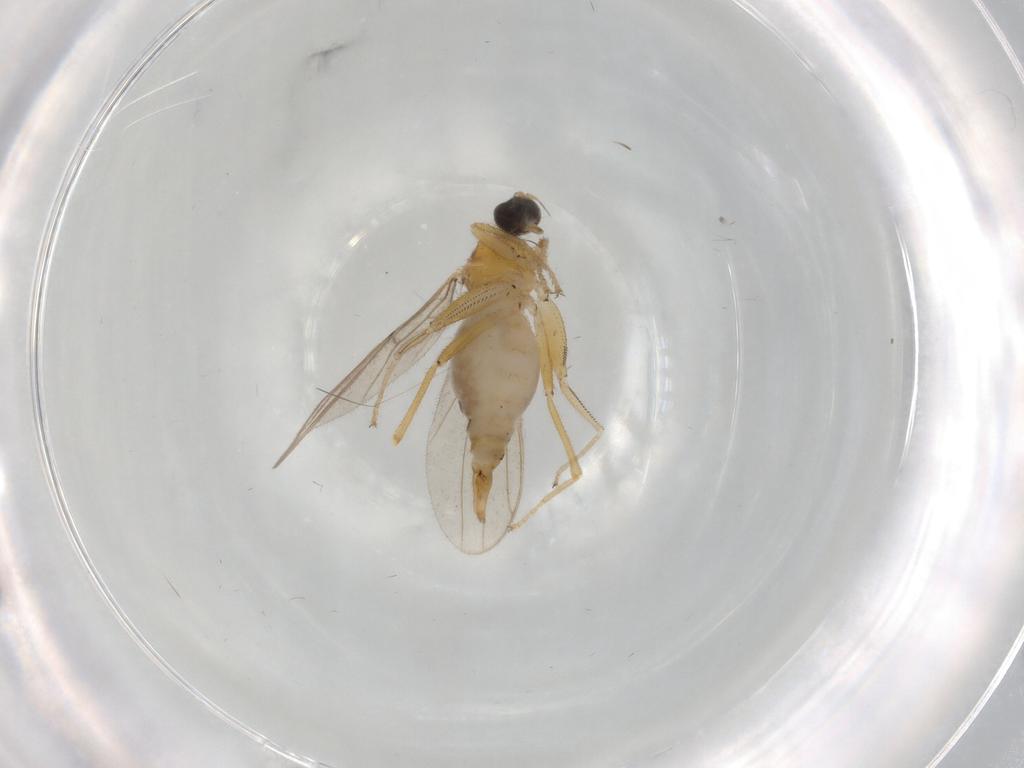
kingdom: Animalia
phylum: Arthropoda
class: Insecta
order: Diptera
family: Hybotidae
